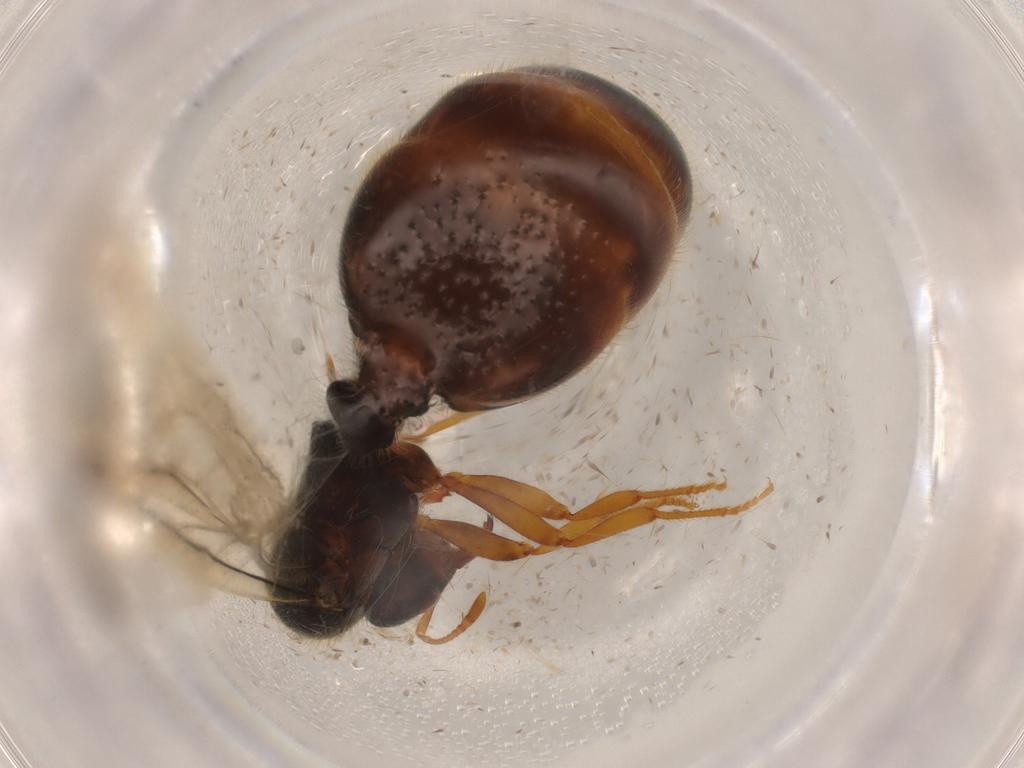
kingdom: Animalia
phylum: Arthropoda
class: Insecta
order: Hymenoptera
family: Formicidae
